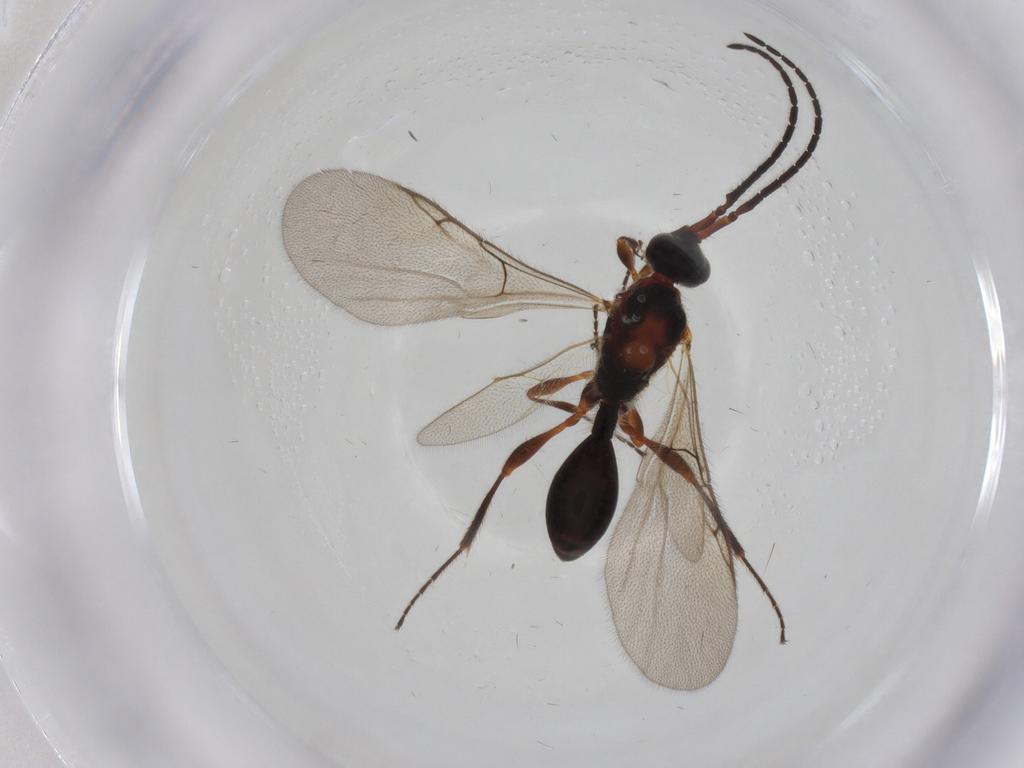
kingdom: Animalia
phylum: Arthropoda
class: Insecta
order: Hymenoptera
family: Diapriidae
